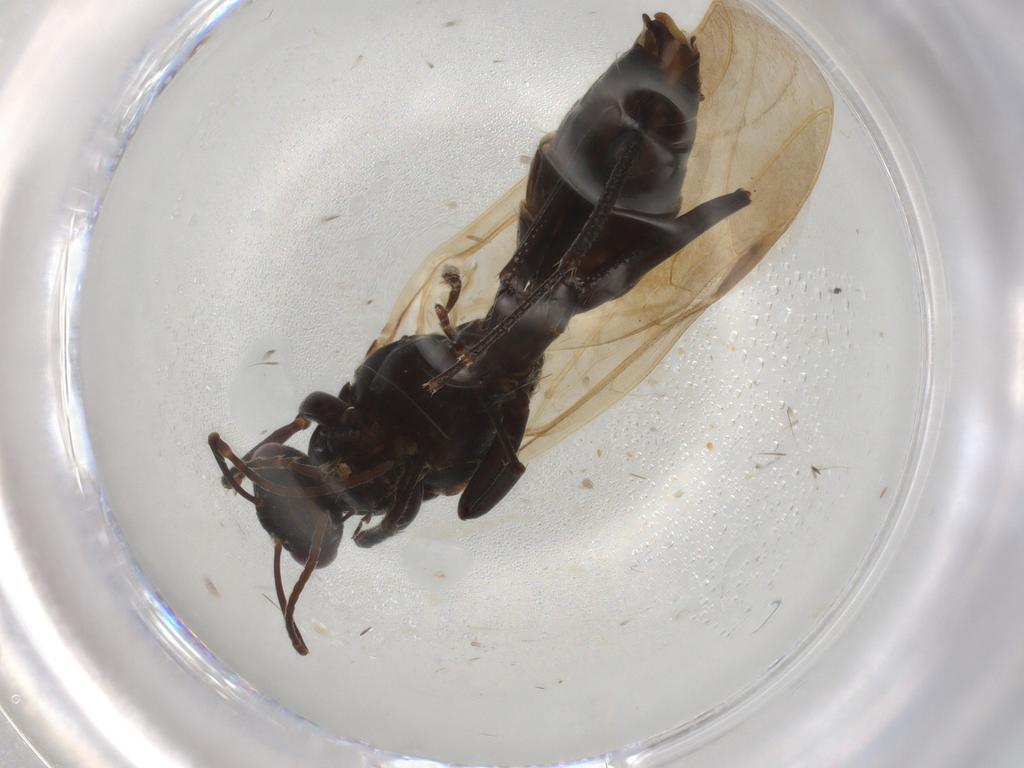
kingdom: Animalia
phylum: Arthropoda
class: Insecta
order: Hymenoptera
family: Formicidae
